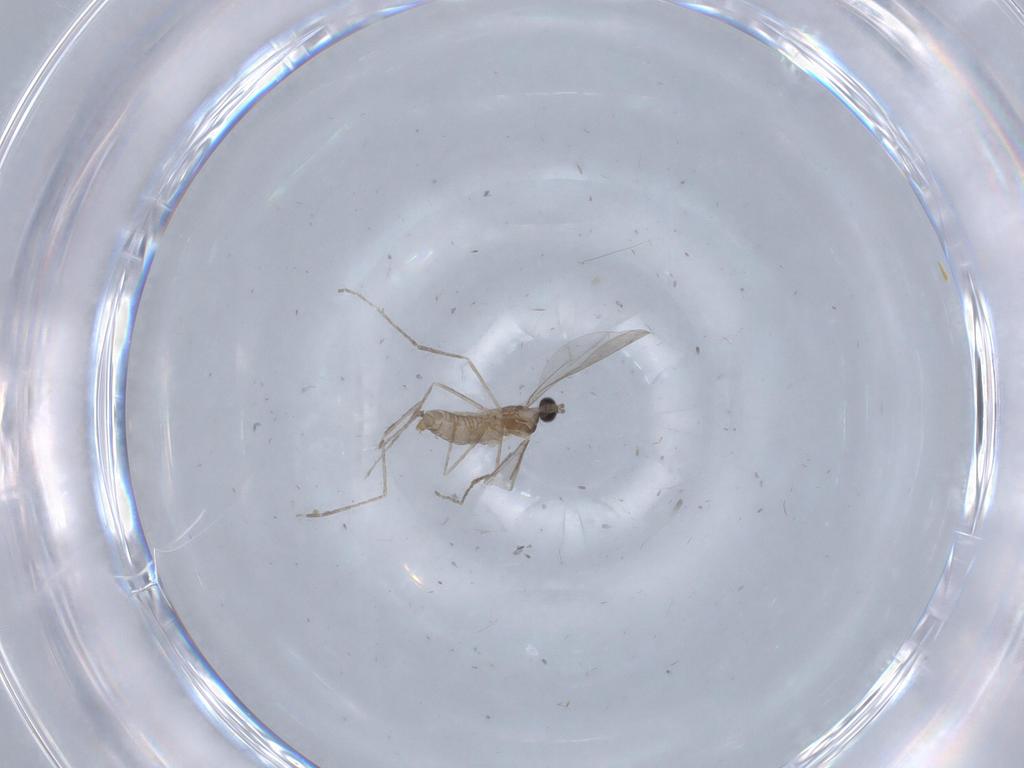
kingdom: Animalia
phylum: Arthropoda
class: Insecta
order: Diptera
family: Cecidomyiidae
